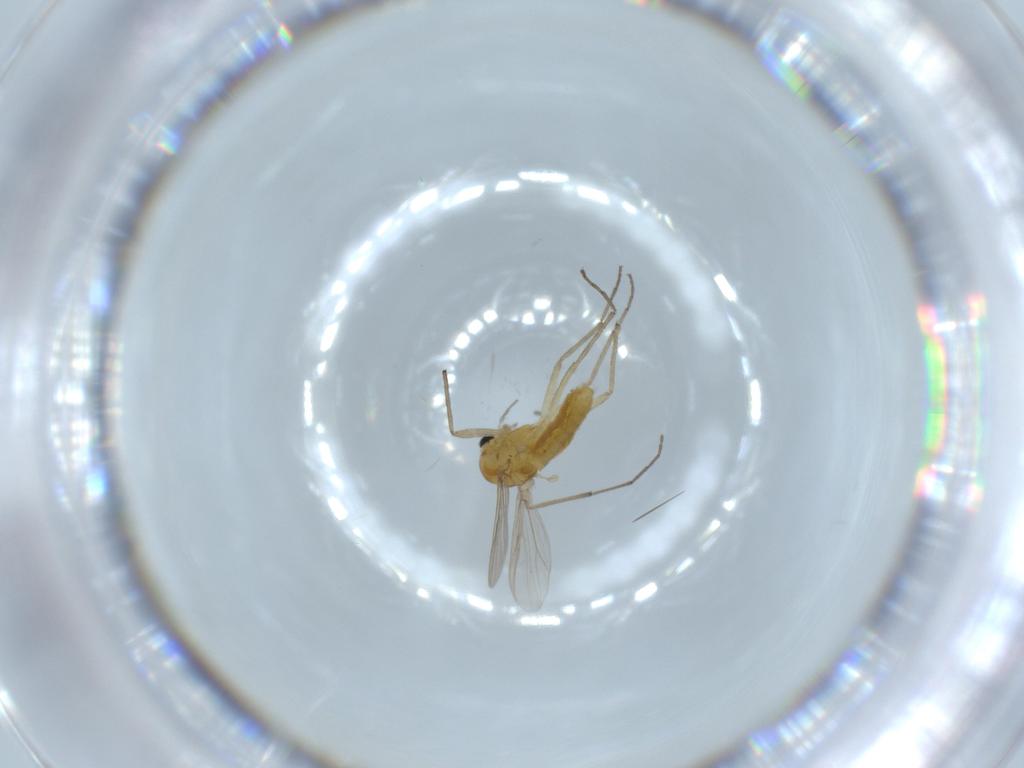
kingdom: Animalia
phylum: Arthropoda
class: Insecta
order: Diptera
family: Chironomidae
